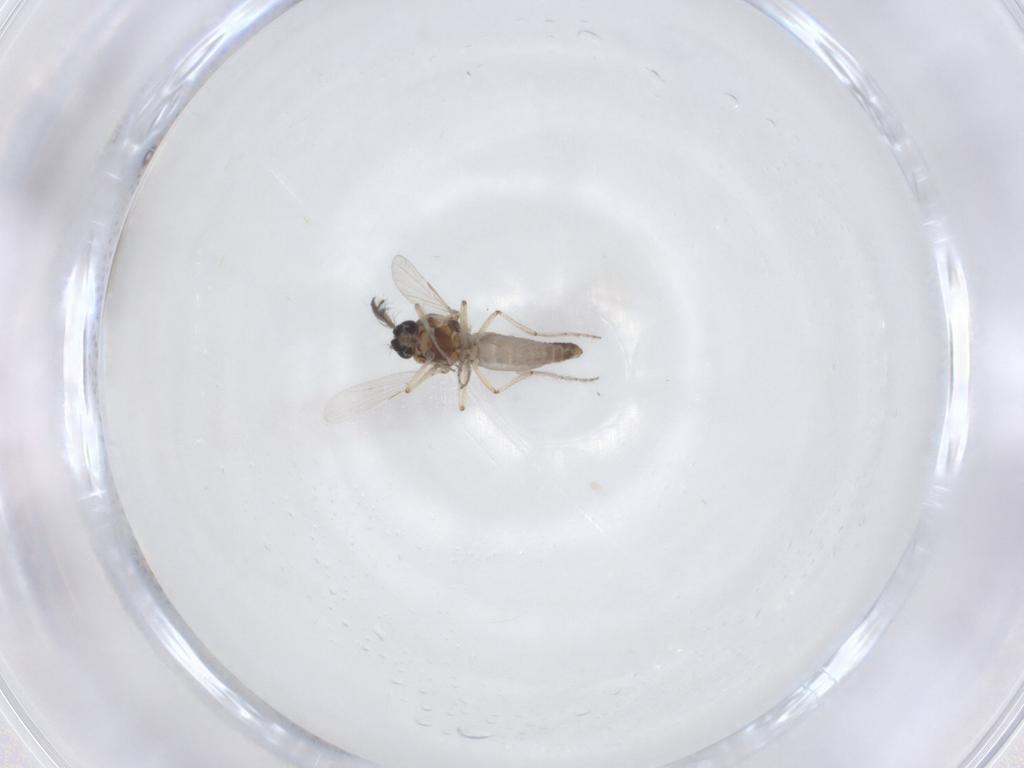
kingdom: Animalia
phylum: Arthropoda
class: Insecta
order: Diptera
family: Ceratopogonidae
